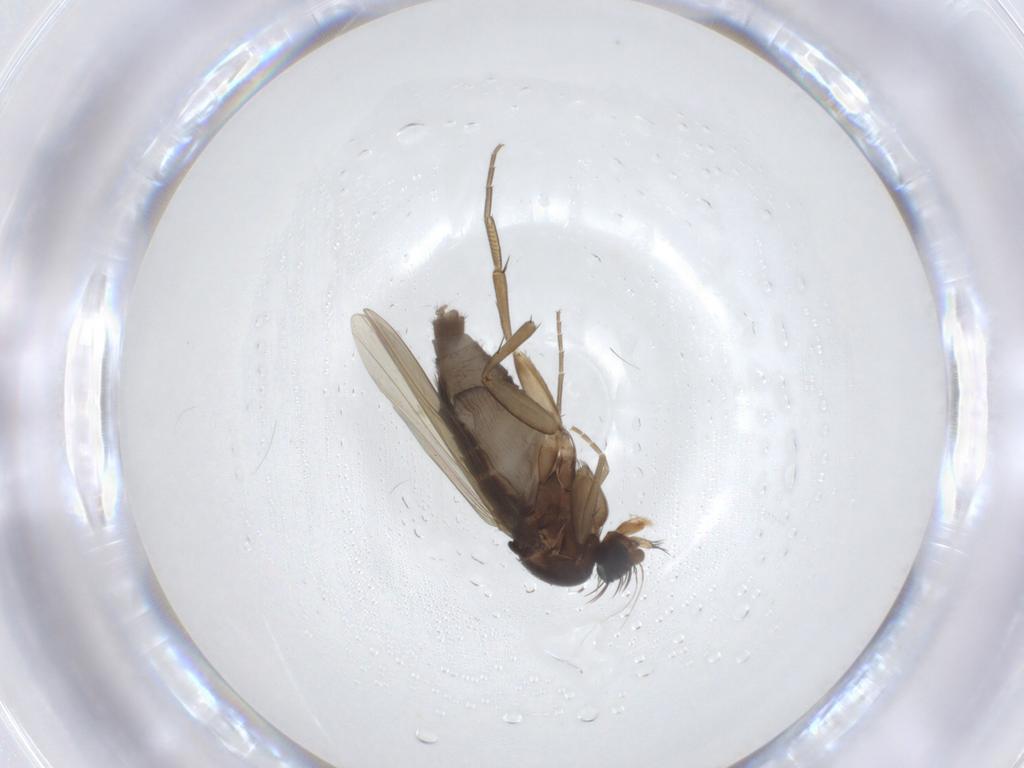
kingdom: Animalia
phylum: Arthropoda
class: Insecta
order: Diptera
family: Phoridae
